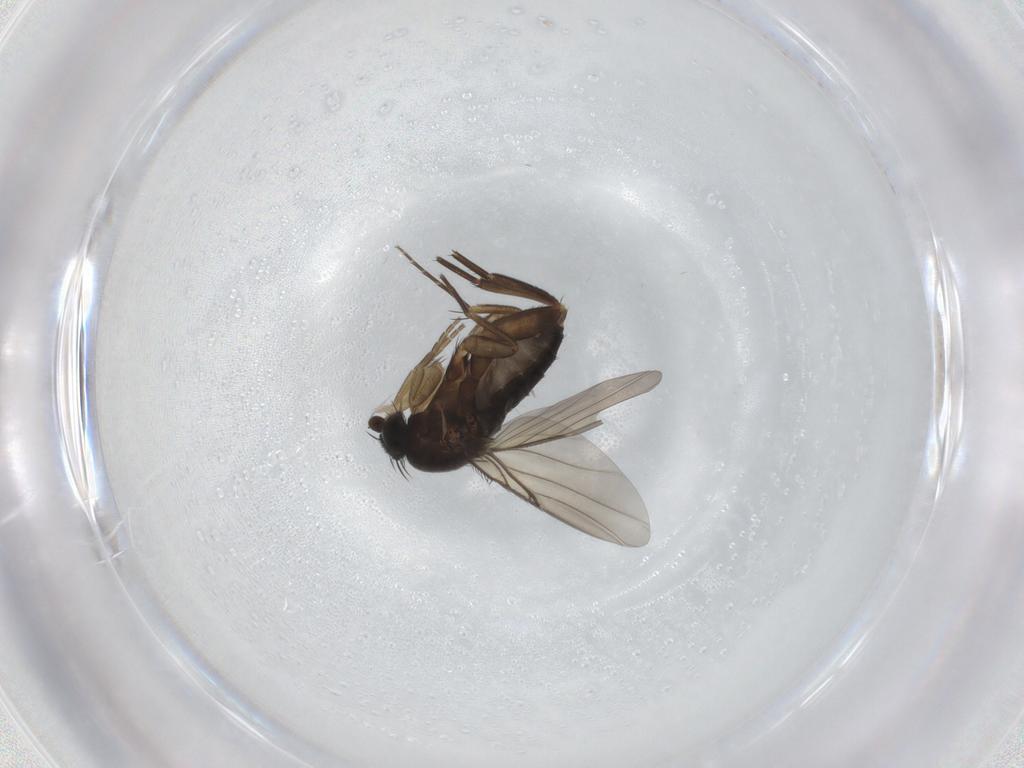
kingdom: Animalia
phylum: Arthropoda
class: Insecta
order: Diptera
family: Phoridae
